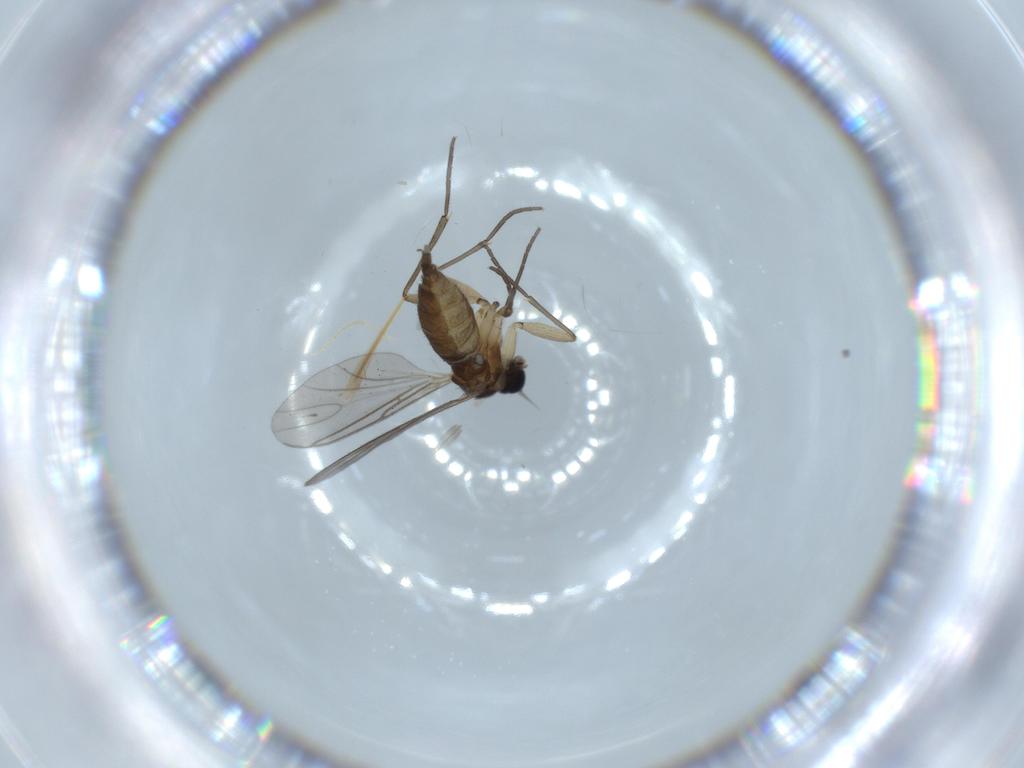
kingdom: Animalia
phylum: Arthropoda
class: Insecta
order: Diptera
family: Sciaridae
